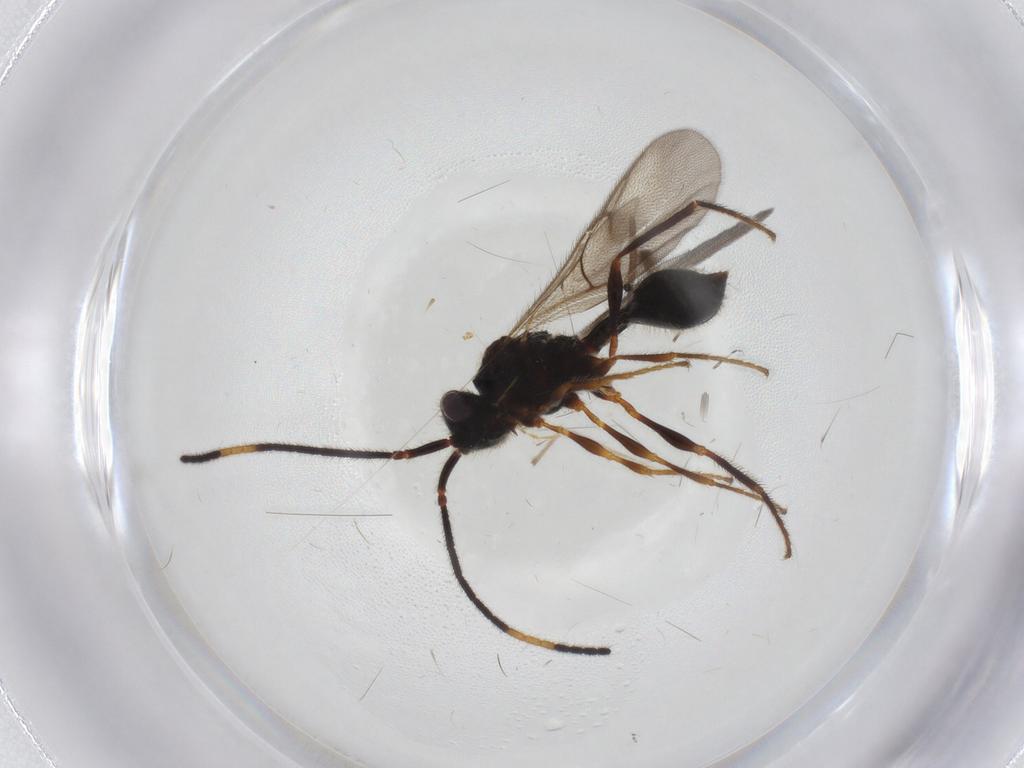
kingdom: Animalia
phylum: Arthropoda
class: Insecta
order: Hymenoptera
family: Diapriidae
